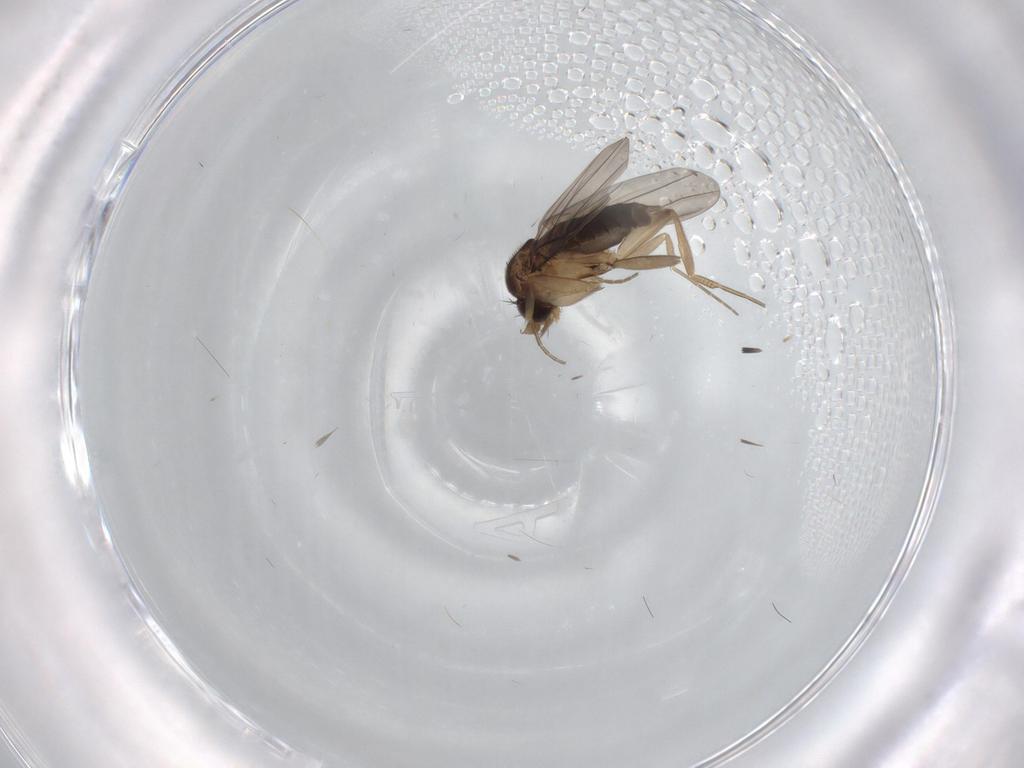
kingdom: Animalia
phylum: Arthropoda
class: Insecta
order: Diptera
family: Phoridae
